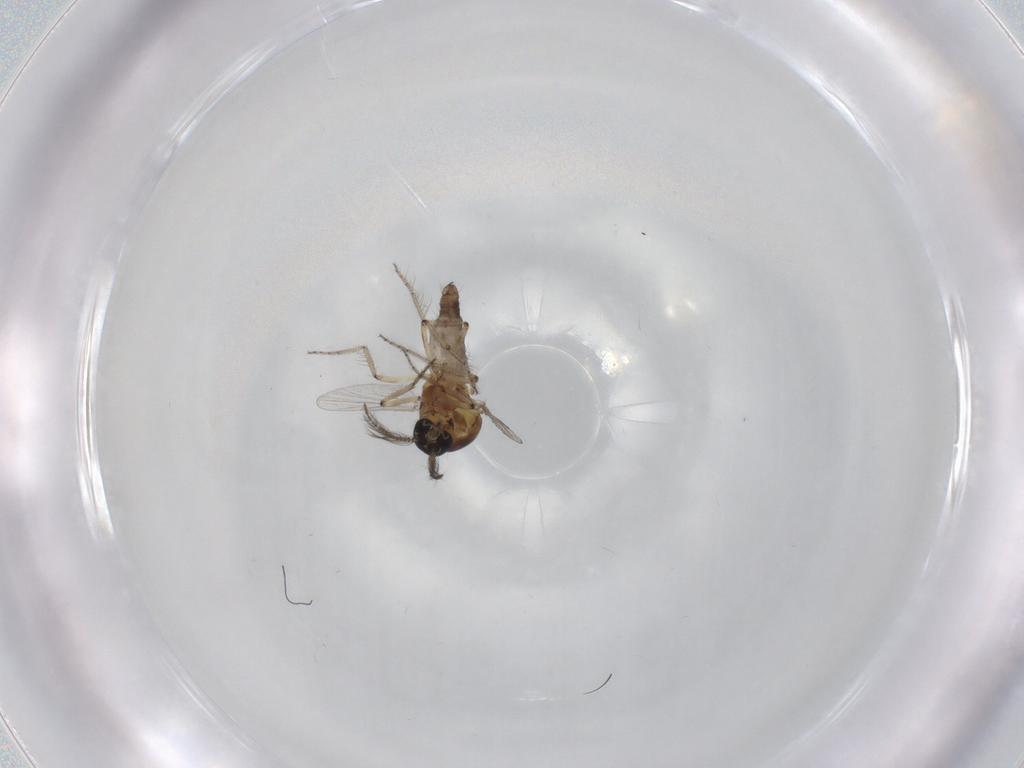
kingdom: Animalia
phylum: Arthropoda
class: Insecta
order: Diptera
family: Ceratopogonidae
